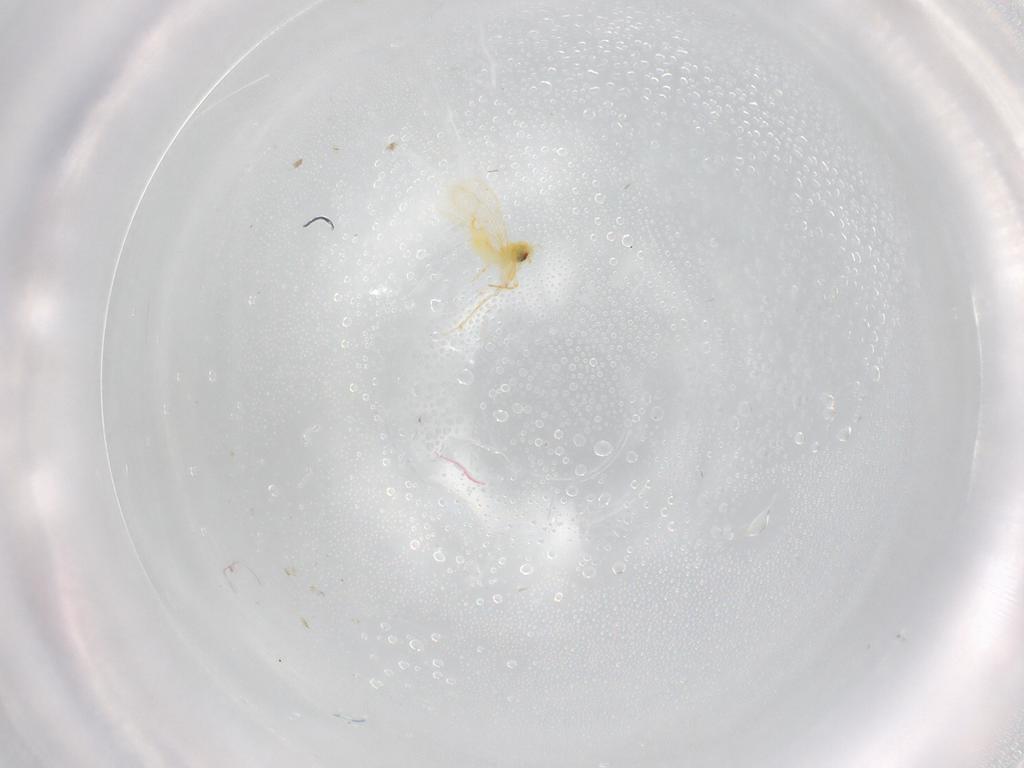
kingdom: Animalia
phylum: Arthropoda
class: Insecta
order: Hemiptera
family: Aleyrodidae
